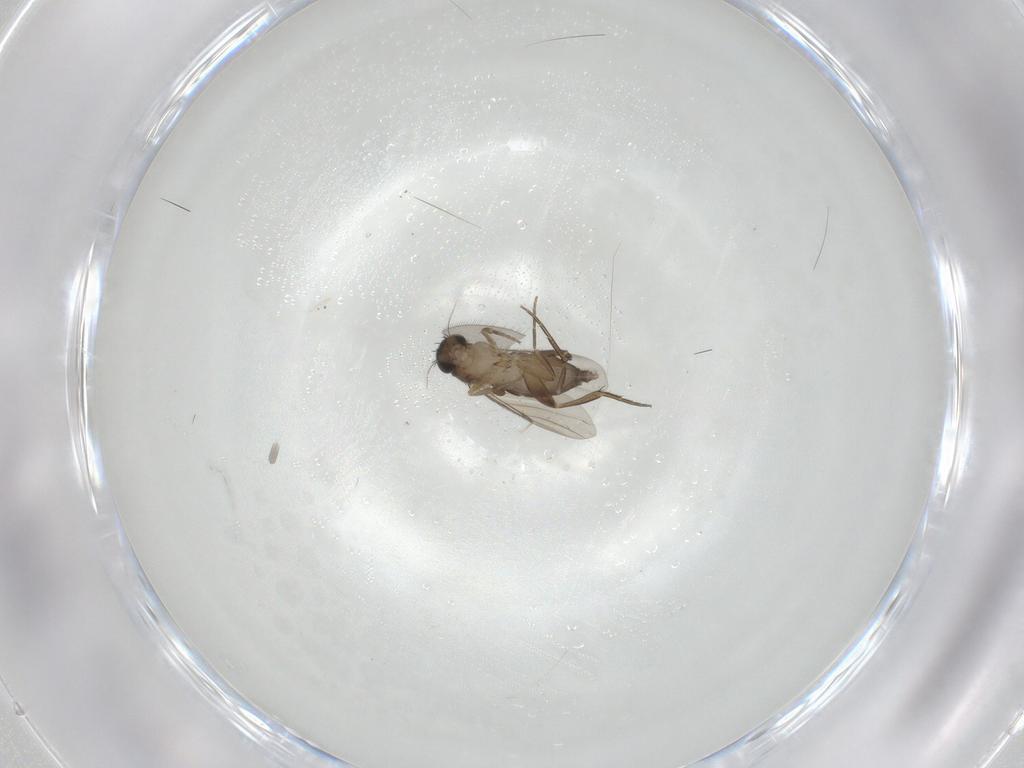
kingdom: Animalia
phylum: Arthropoda
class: Insecta
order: Diptera
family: Phoridae
